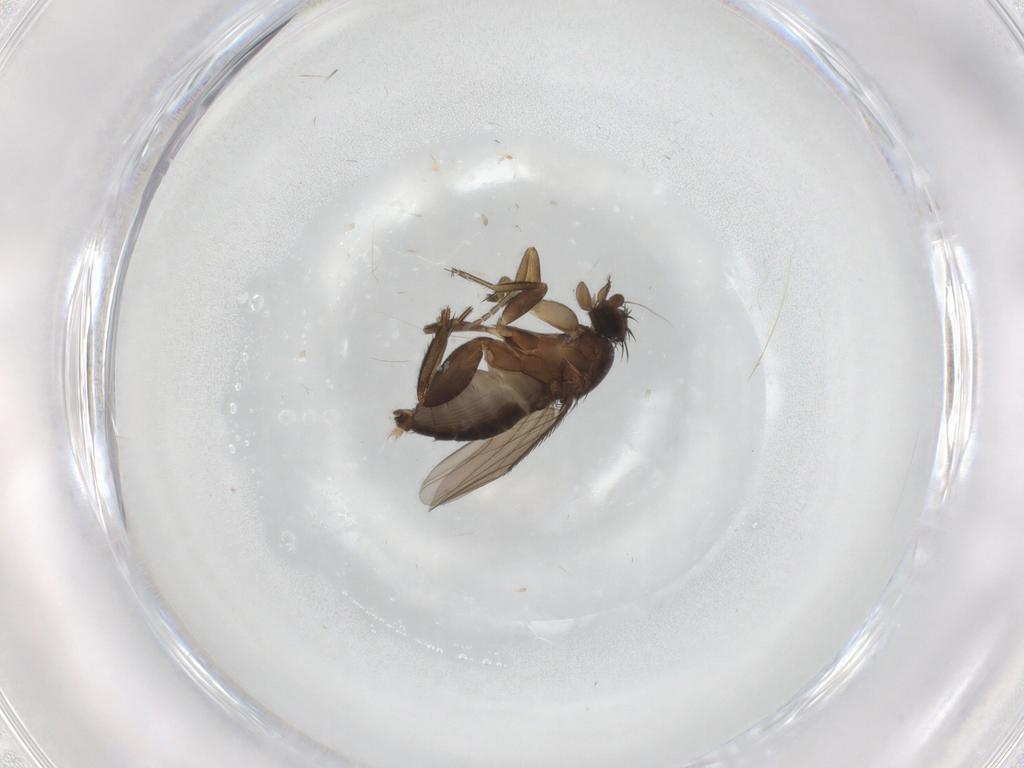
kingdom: Animalia
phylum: Arthropoda
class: Insecta
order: Diptera
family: Phoridae
